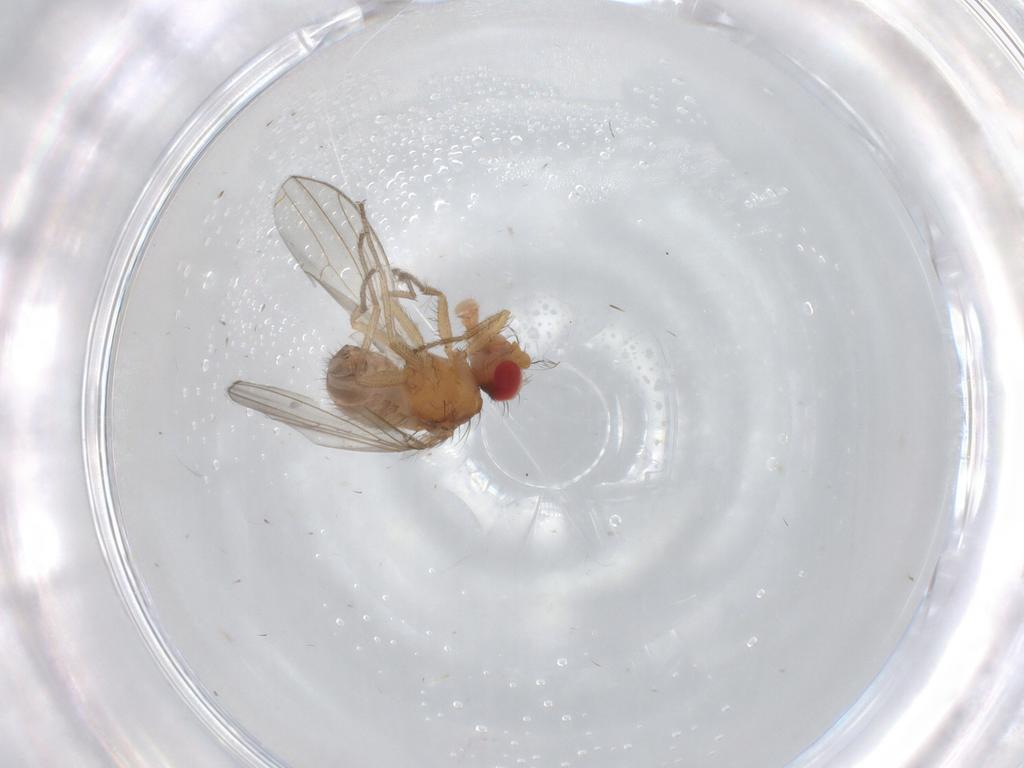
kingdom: Animalia
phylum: Arthropoda
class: Insecta
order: Diptera
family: Drosophilidae
